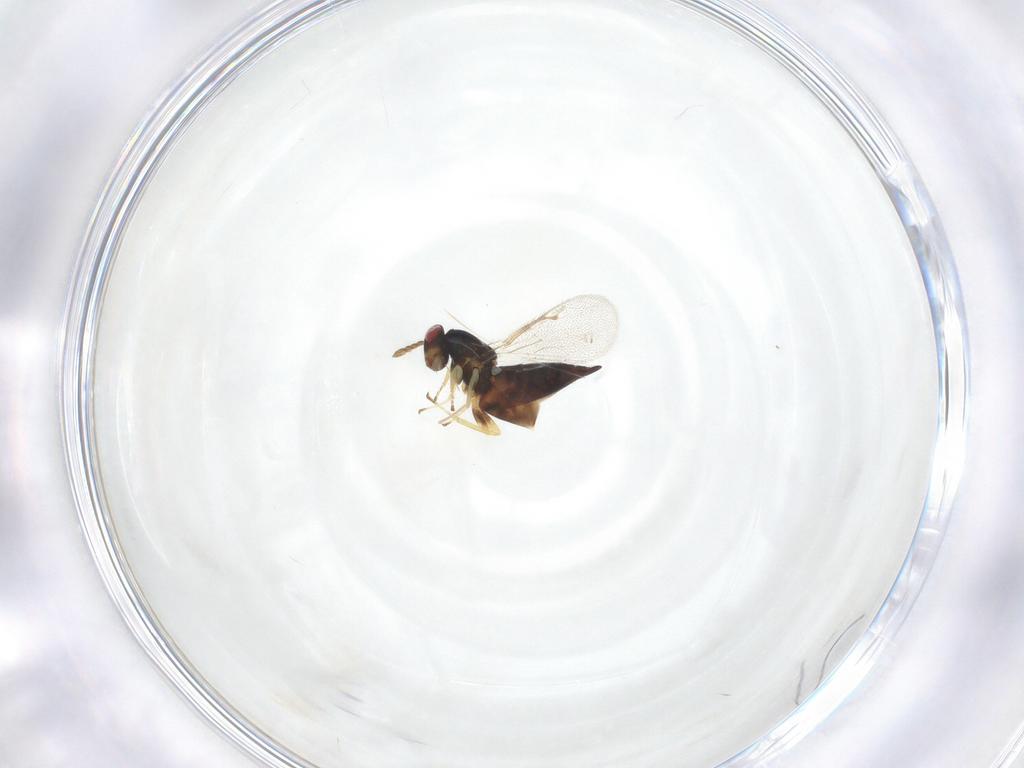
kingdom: Animalia
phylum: Arthropoda
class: Insecta
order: Hymenoptera
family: Eulophidae
